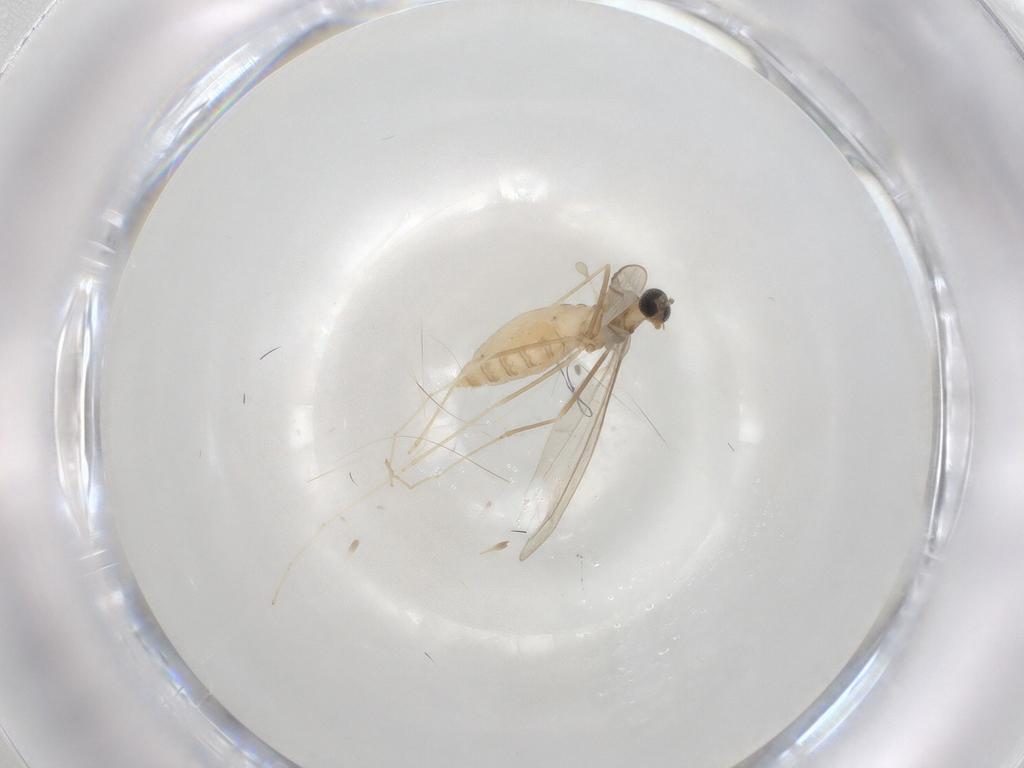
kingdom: Animalia
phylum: Arthropoda
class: Insecta
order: Diptera
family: Cecidomyiidae
